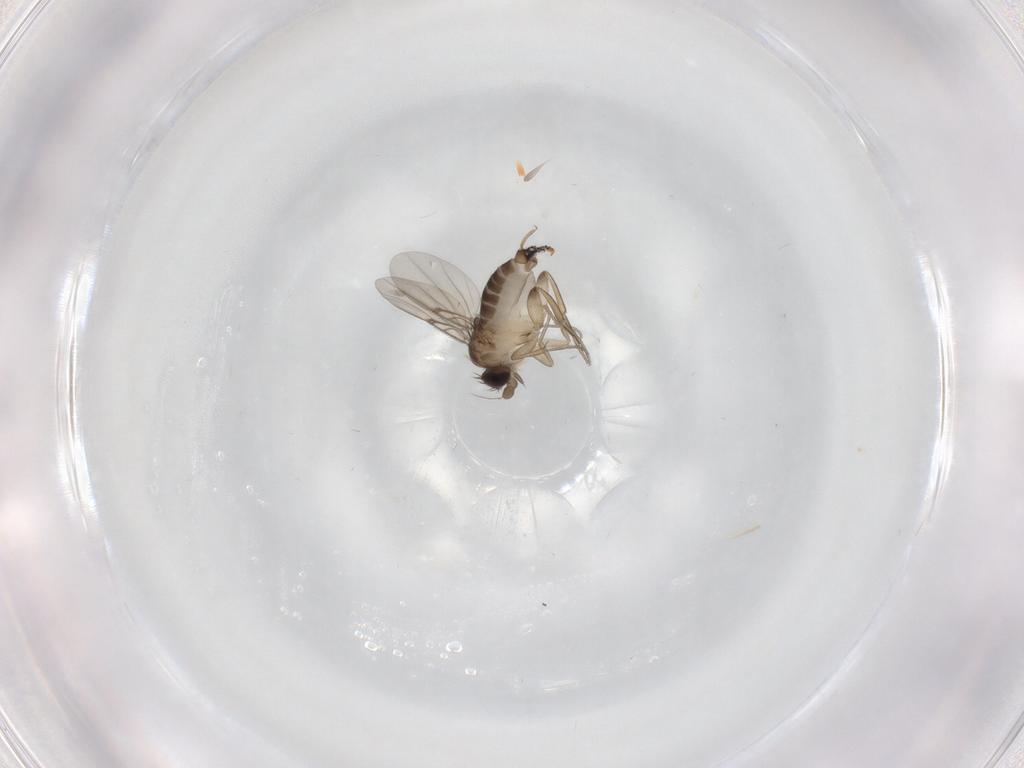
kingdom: Animalia
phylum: Arthropoda
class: Insecta
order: Diptera
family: Phoridae
